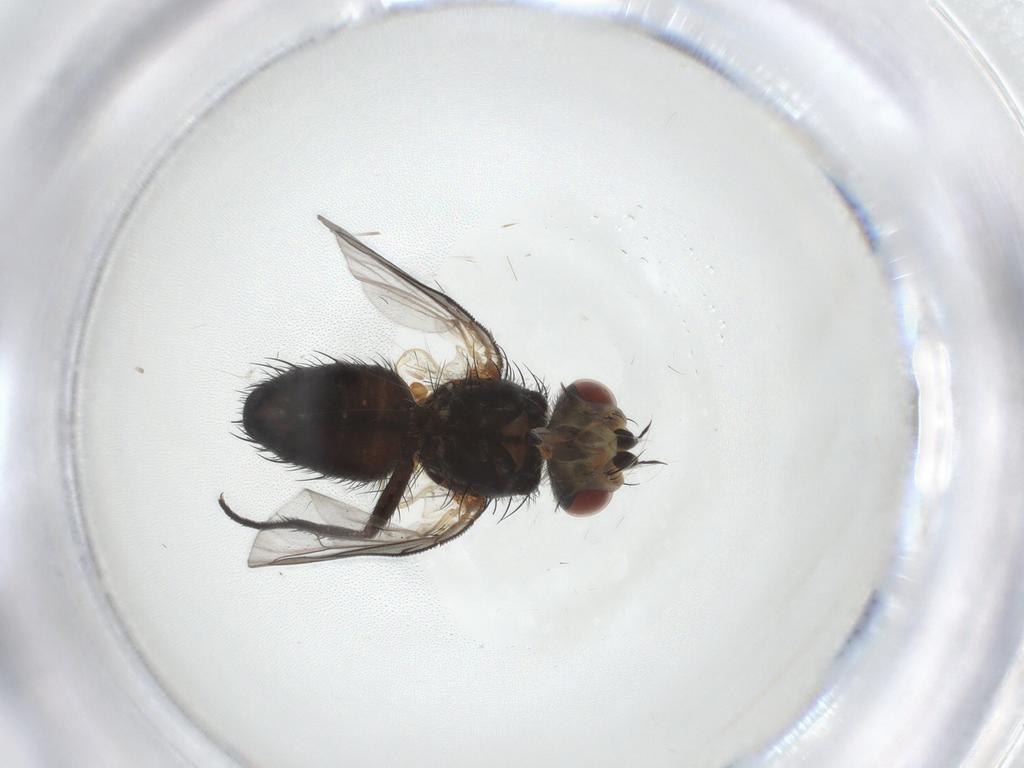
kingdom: Animalia
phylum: Arthropoda
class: Insecta
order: Diptera
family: Tachinidae
